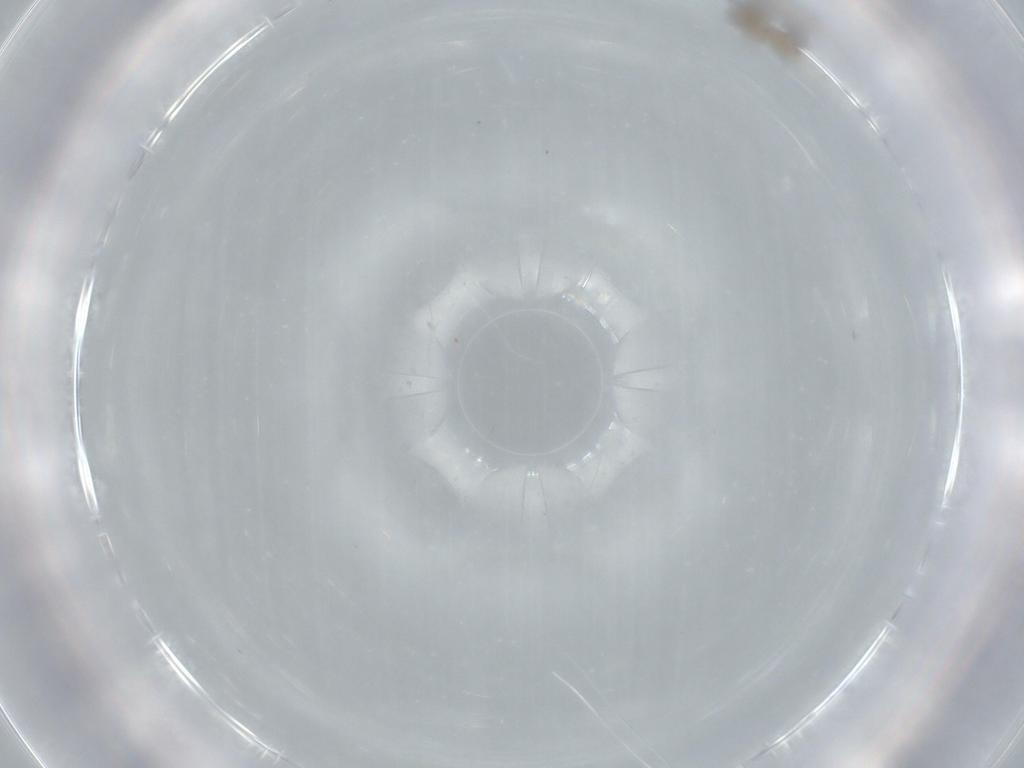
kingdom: Animalia
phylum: Arthropoda
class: Insecta
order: Hymenoptera
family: Mymaridae
